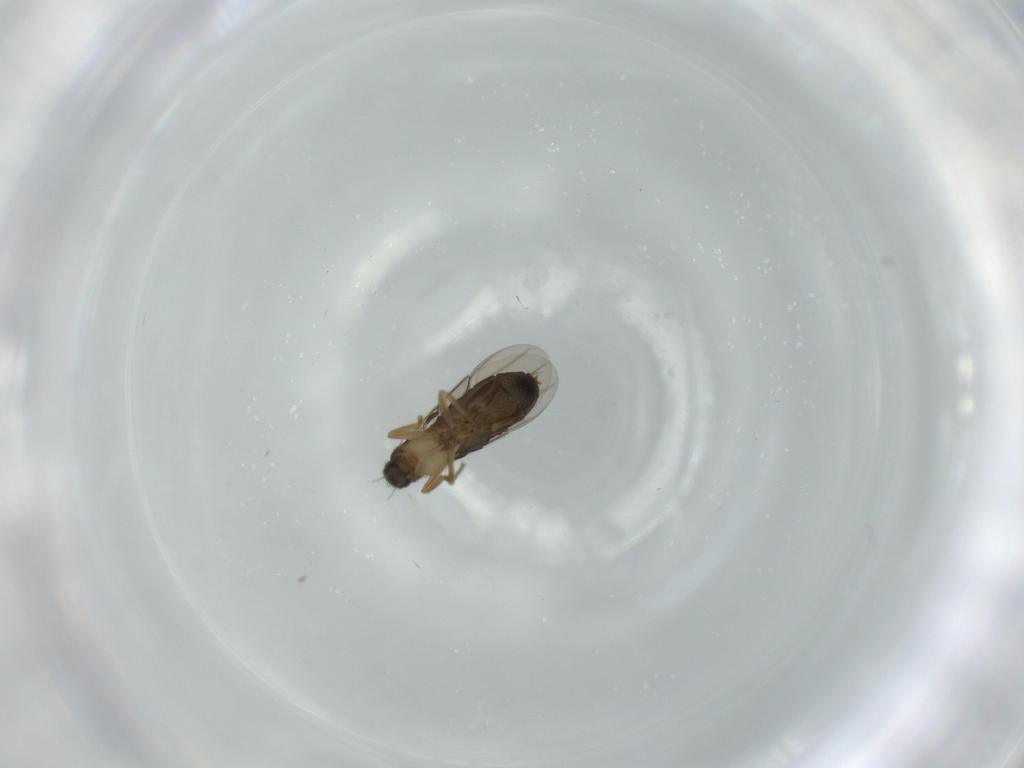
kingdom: Animalia
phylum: Arthropoda
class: Insecta
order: Diptera
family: Phoridae
